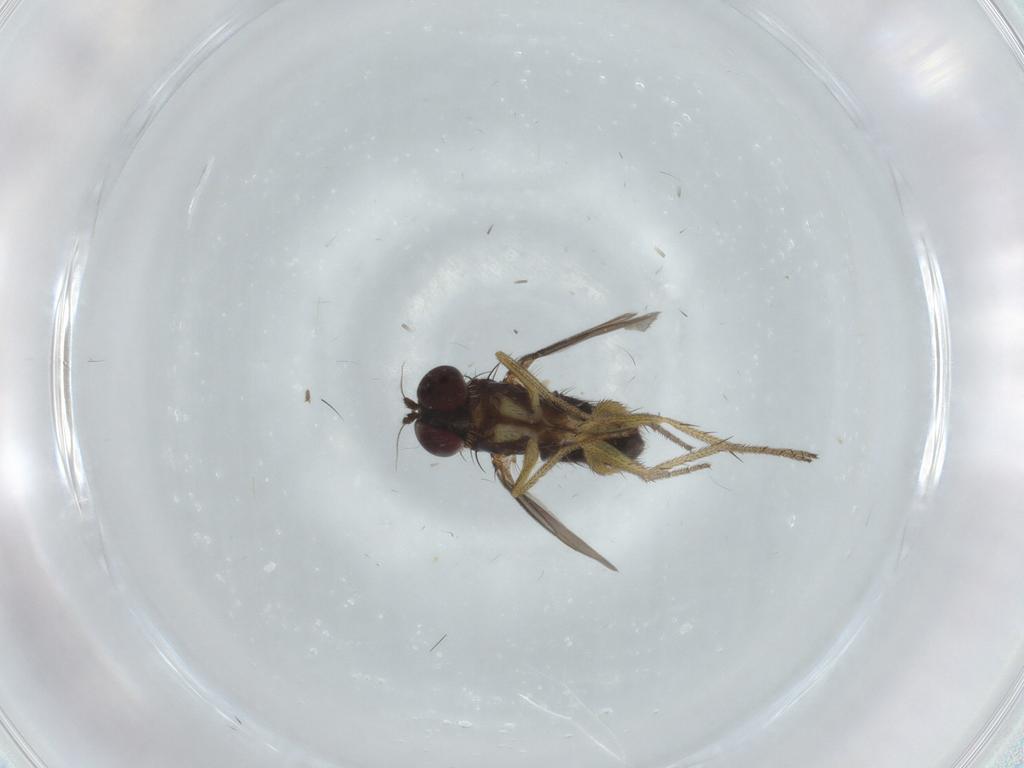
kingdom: Animalia
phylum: Arthropoda
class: Insecta
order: Diptera
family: Dolichopodidae
